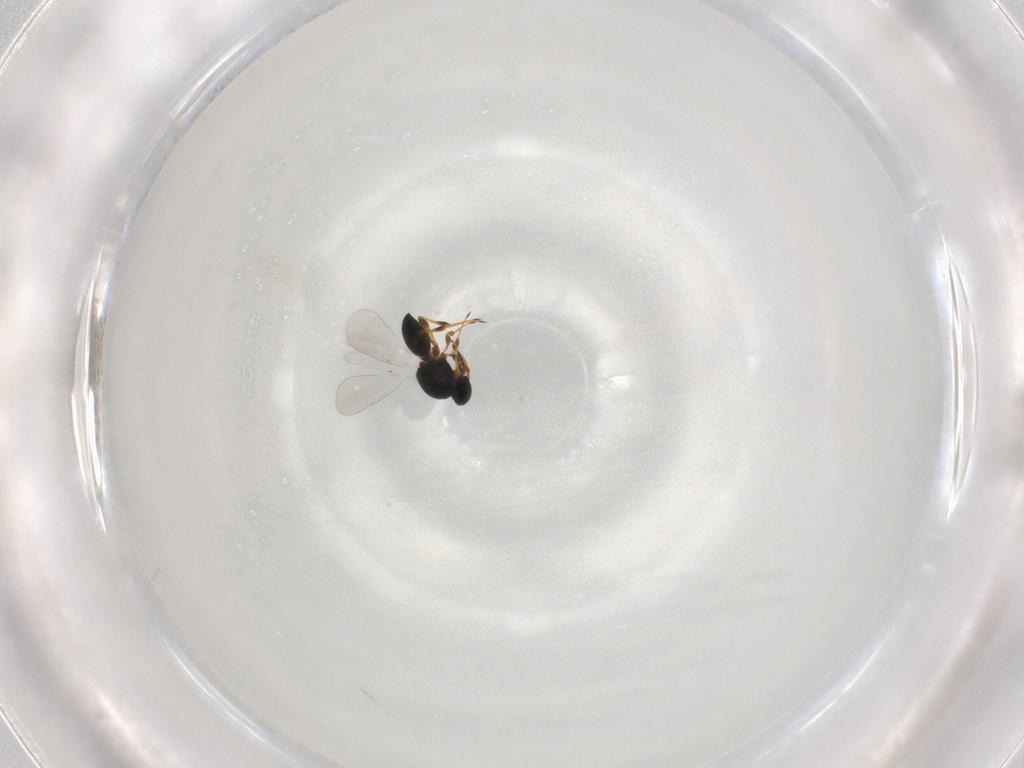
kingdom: Animalia
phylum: Arthropoda
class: Insecta
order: Hymenoptera
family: Platygastridae
